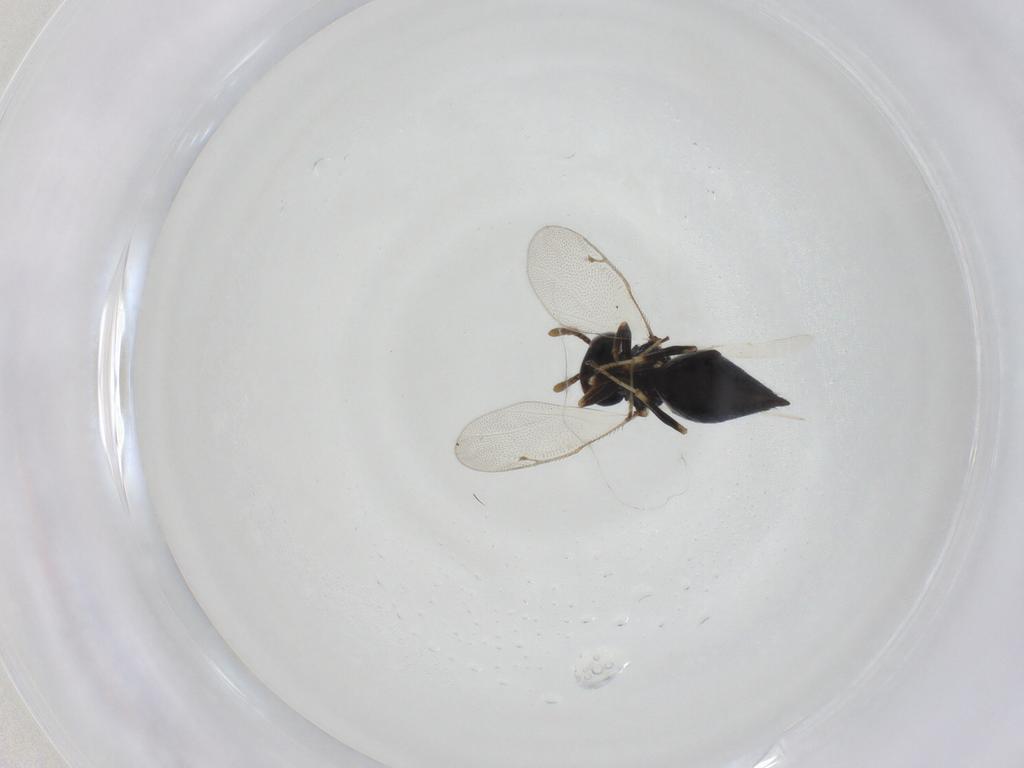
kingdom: Animalia
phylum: Arthropoda
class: Insecta
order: Hymenoptera
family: Pteromalidae
